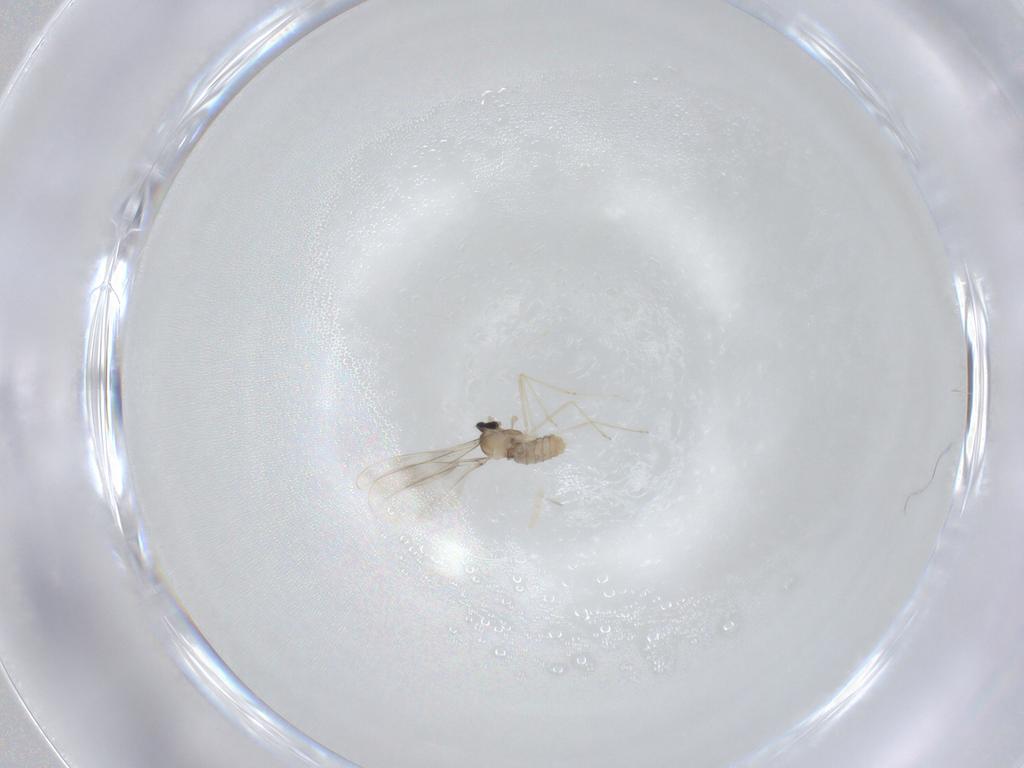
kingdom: Animalia
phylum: Arthropoda
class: Insecta
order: Diptera
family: Cecidomyiidae
